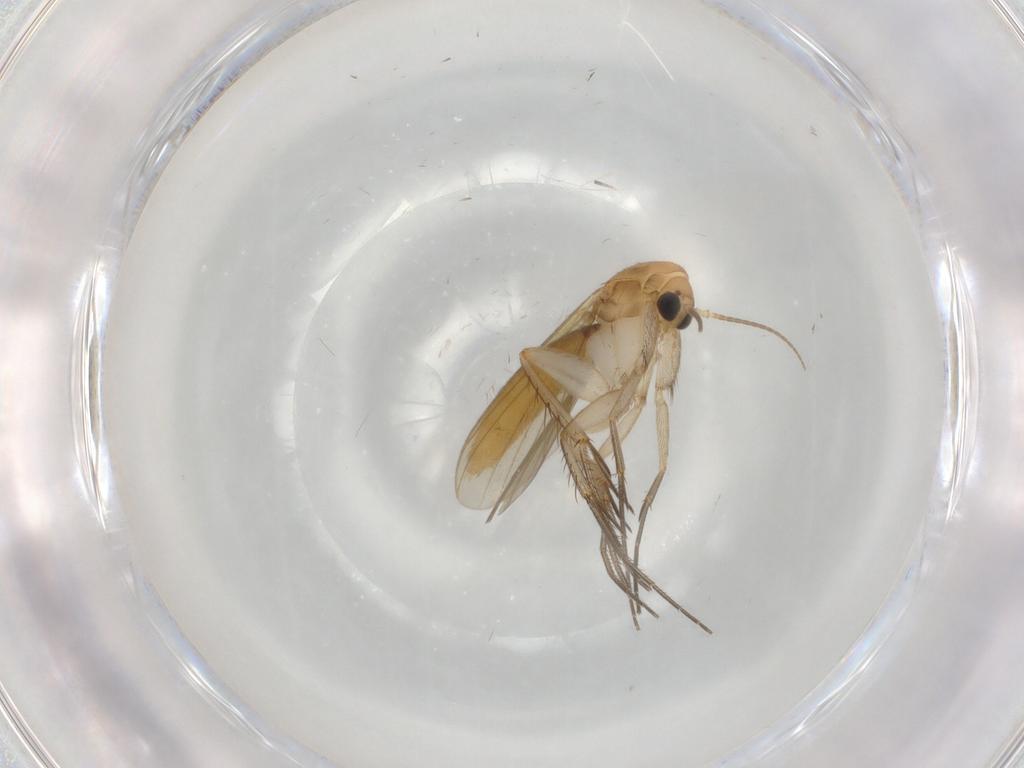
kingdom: Animalia
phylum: Arthropoda
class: Insecta
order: Diptera
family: Mycetophilidae
